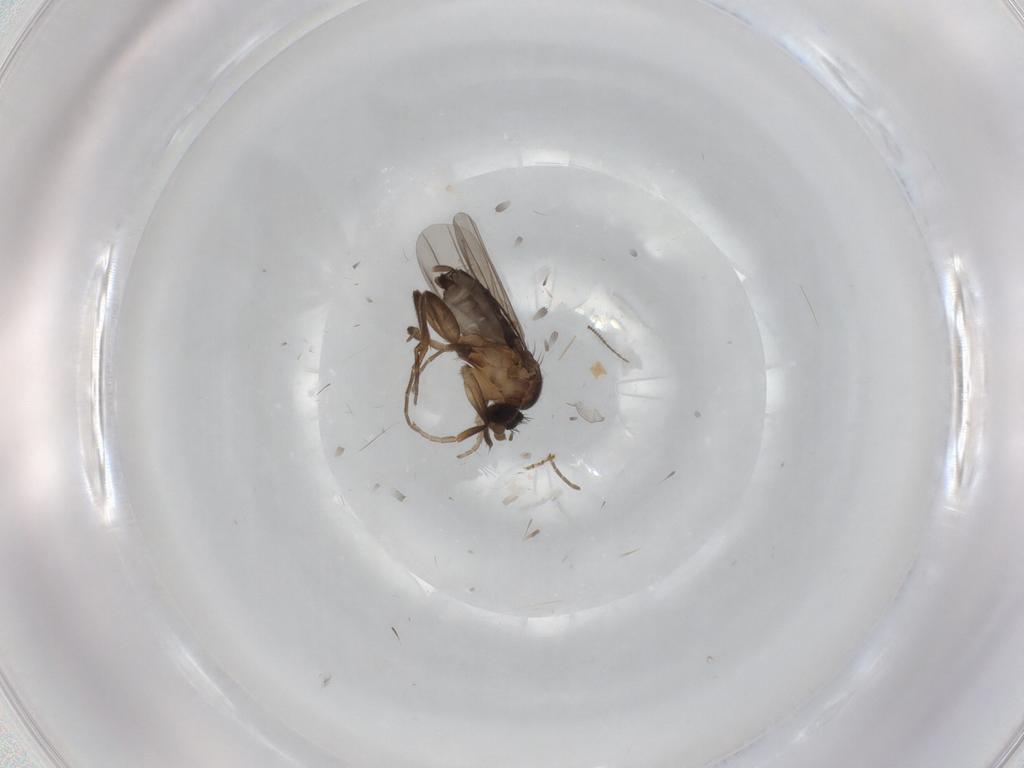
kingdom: Animalia
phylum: Arthropoda
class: Insecta
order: Diptera
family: Phoridae
